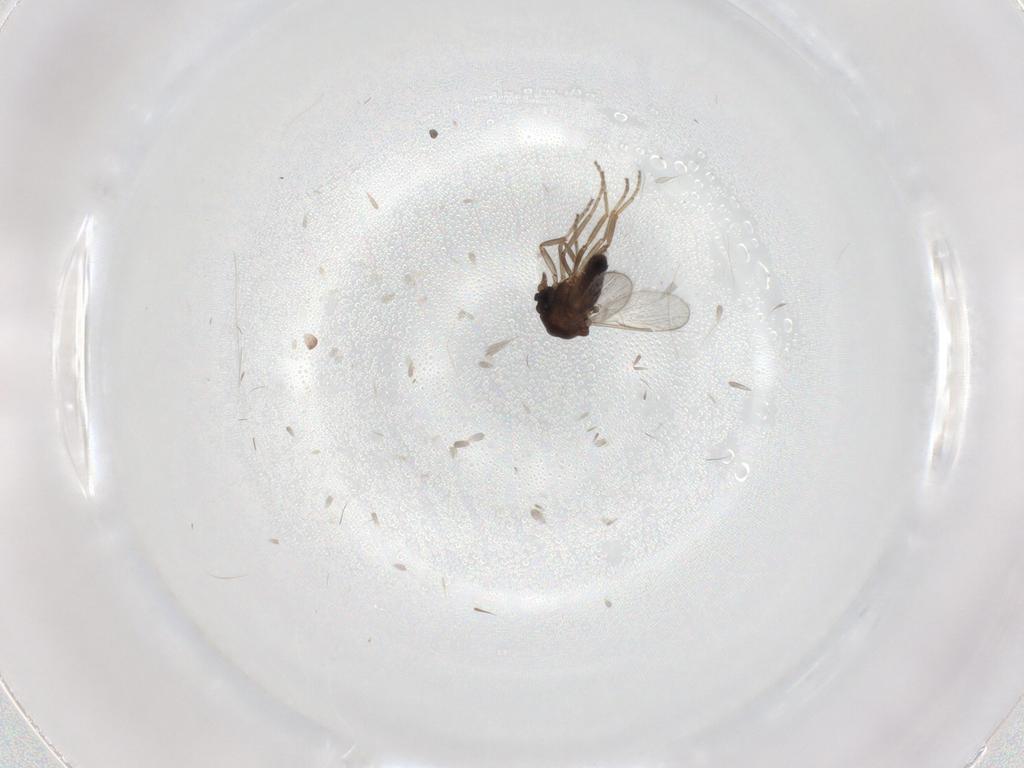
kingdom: Animalia
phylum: Arthropoda
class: Insecta
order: Diptera
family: Ceratopogonidae
